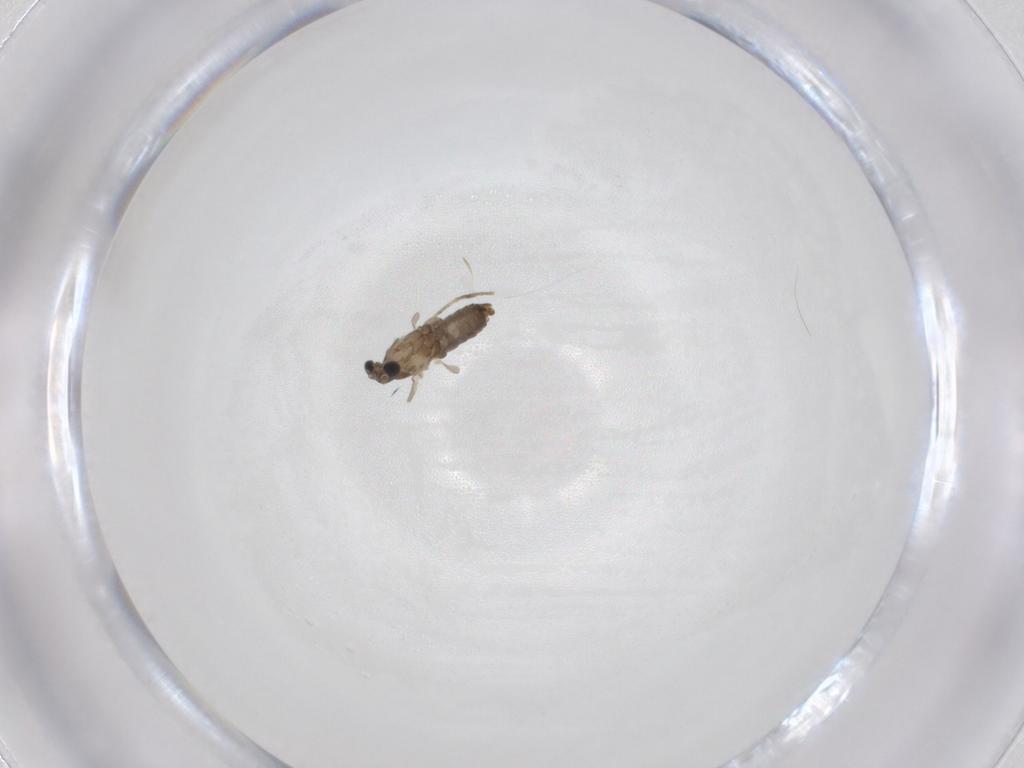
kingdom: Animalia
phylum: Arthropoda
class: Insecta
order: Diptera
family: Psychodidae
